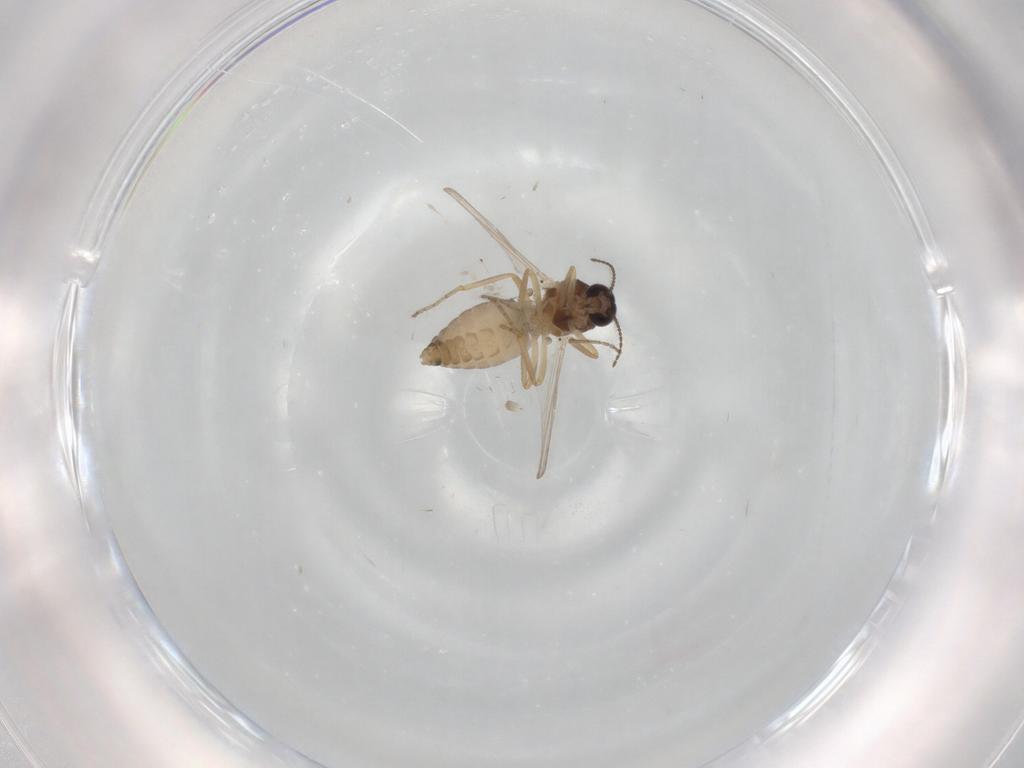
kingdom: Animalia
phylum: Arthropoda
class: Insecta
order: Diptera
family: Ceratopogonidae
